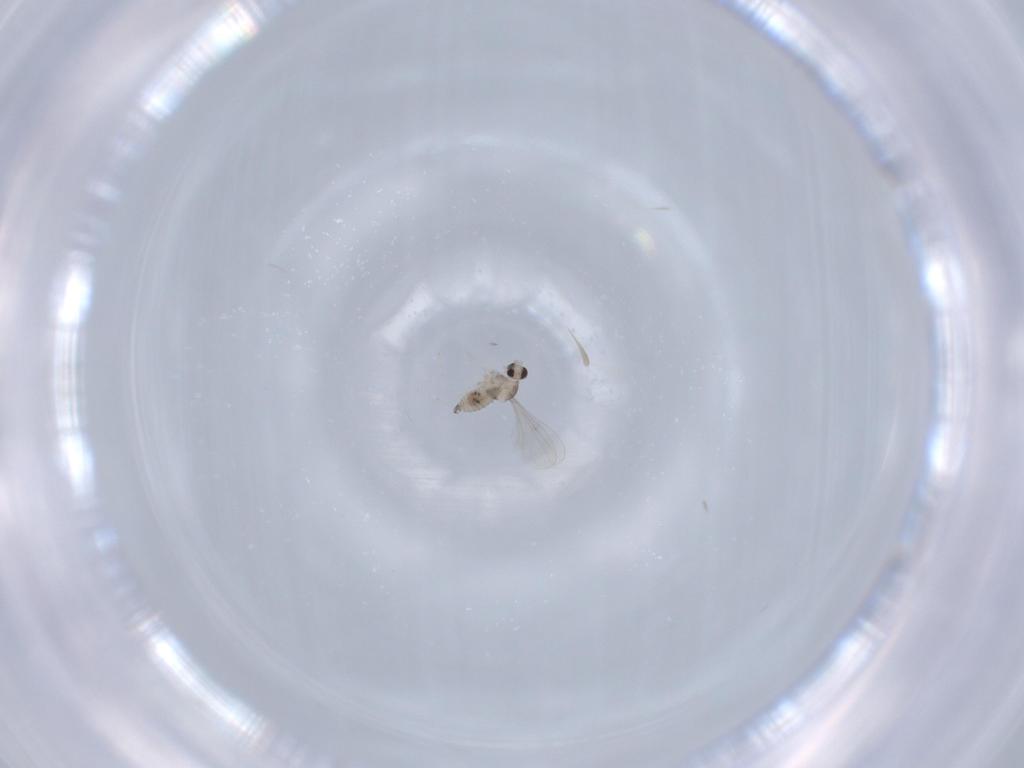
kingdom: Animalia
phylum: Arthropoda
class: Insecta
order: Diptera
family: Cecidomyiidae
